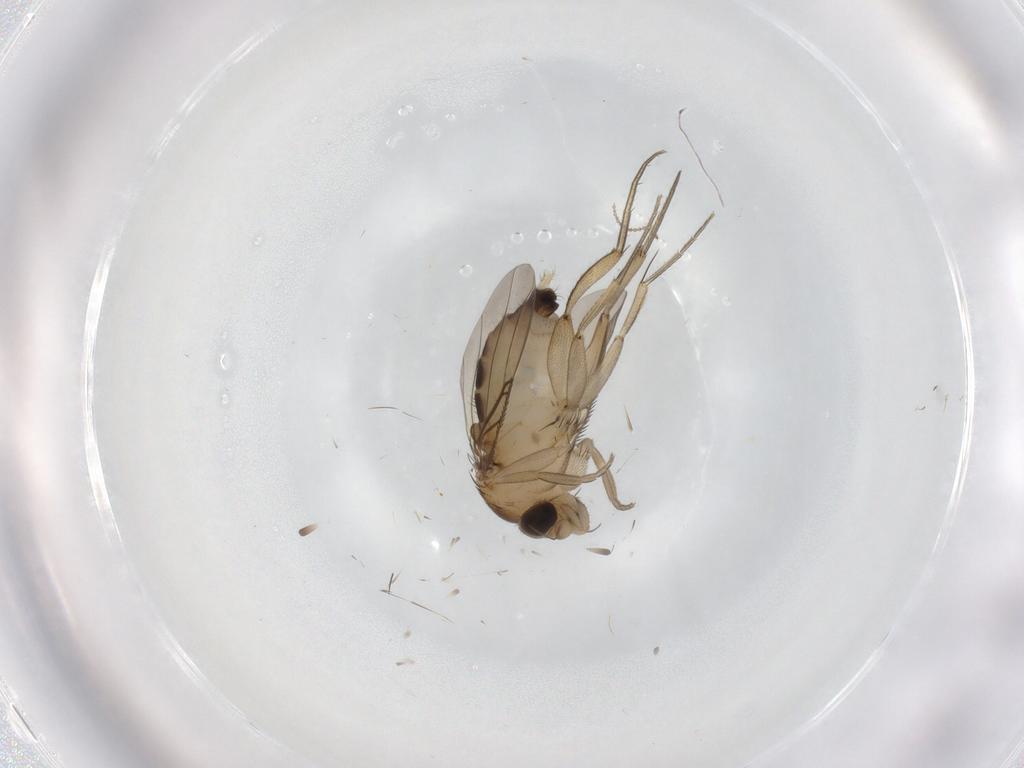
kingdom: Animalia
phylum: Arthropoda
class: Insecta
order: Diptera
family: Phoridae
